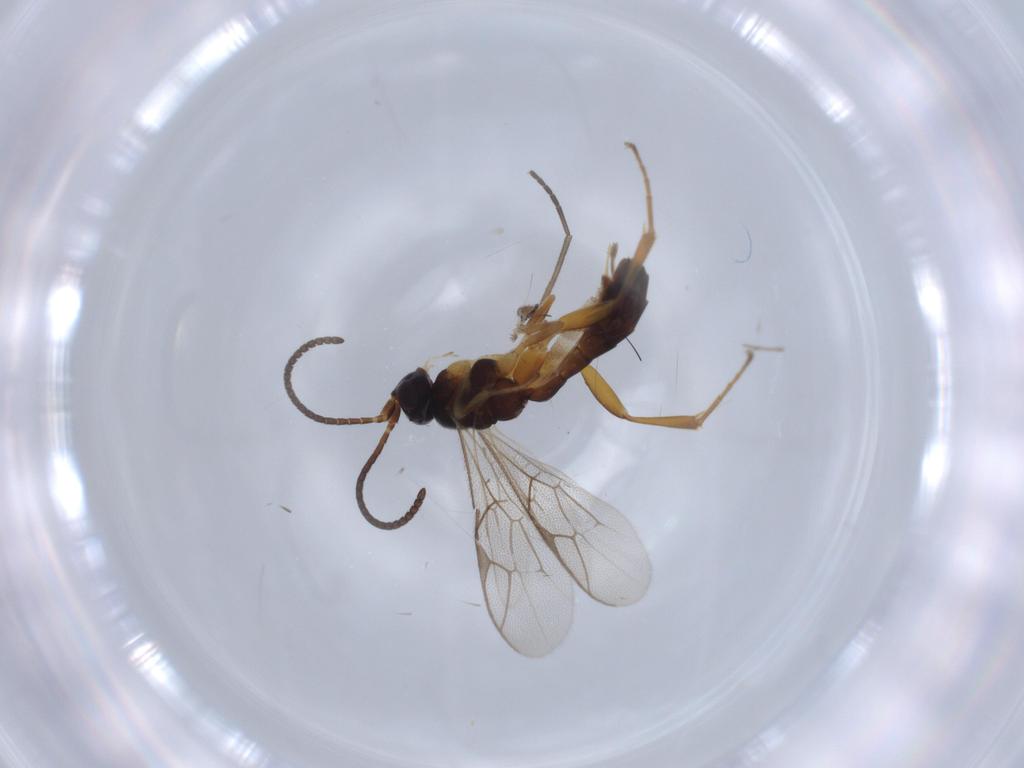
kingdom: Animalia
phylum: Arthropoda
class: Insecta
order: Hymenoptera
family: Ichneumonidae
